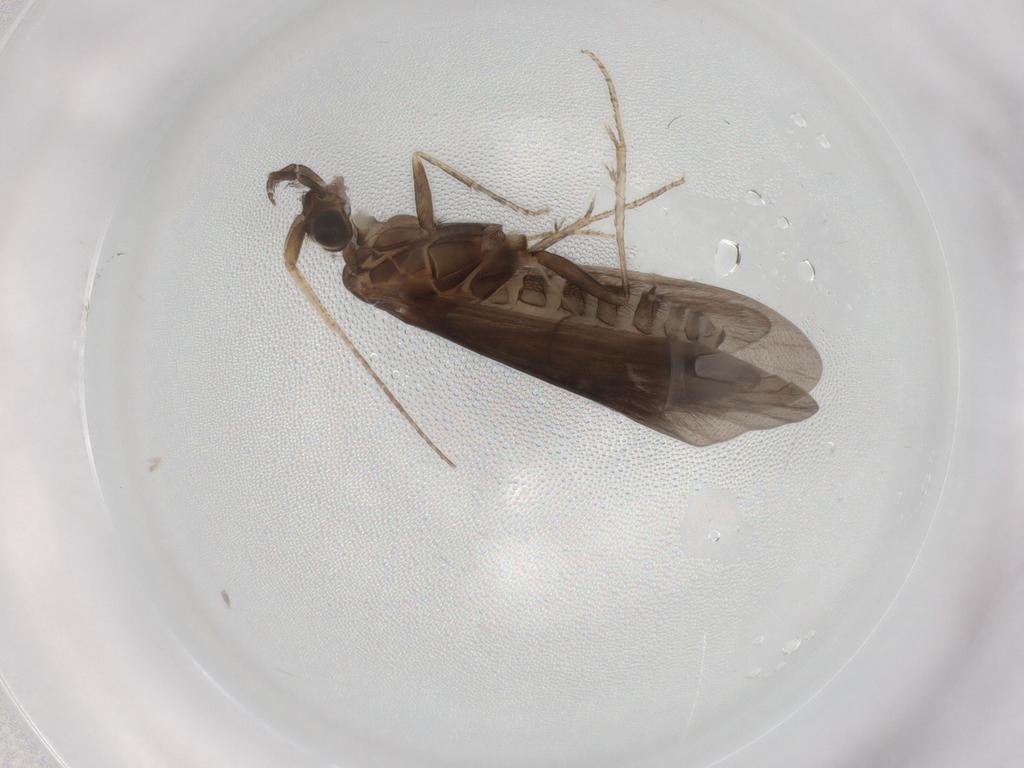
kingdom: Animalia
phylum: Arthropoda
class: Insecta
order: Trichoptera
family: Helicopsychidae
